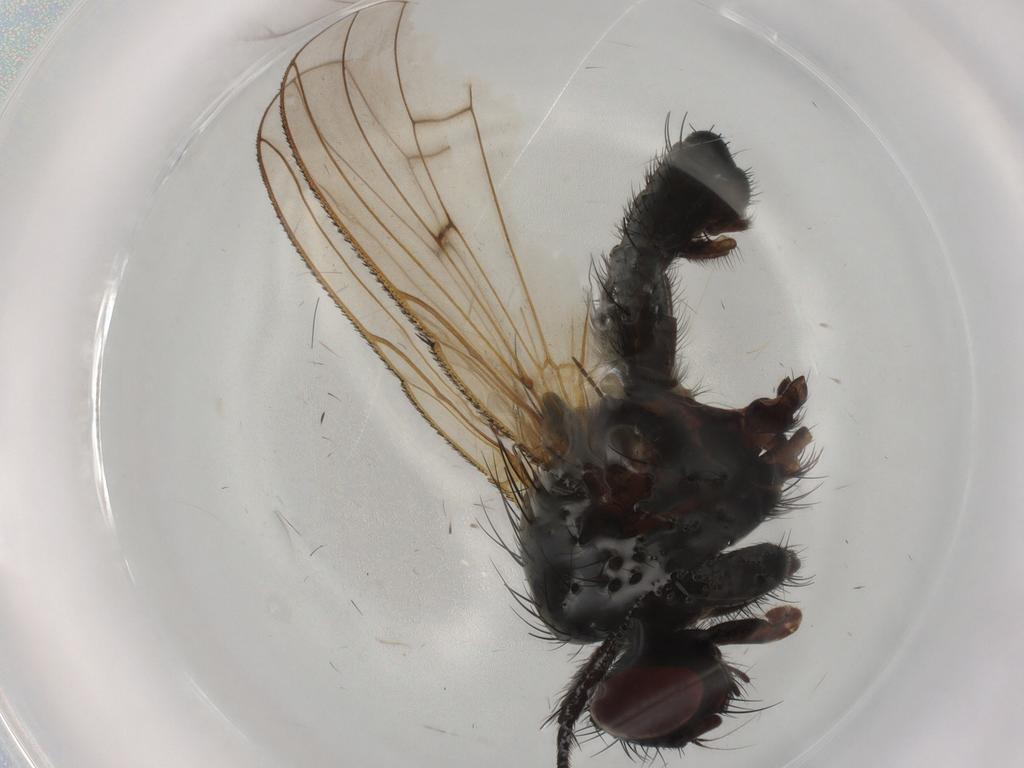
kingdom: Animalia
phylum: Arthropoda
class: Insecta
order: Diptera
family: Anthomyiidae
